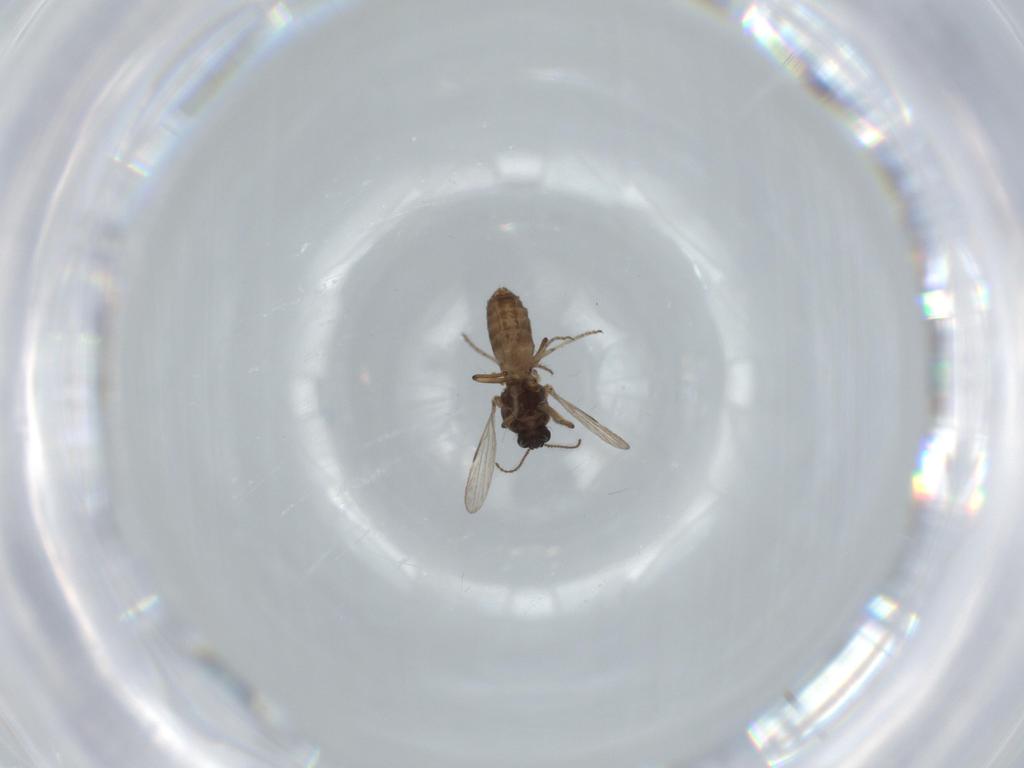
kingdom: Animalia
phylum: Arthropoda
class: Insecta
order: Diptera
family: Chironomidae
